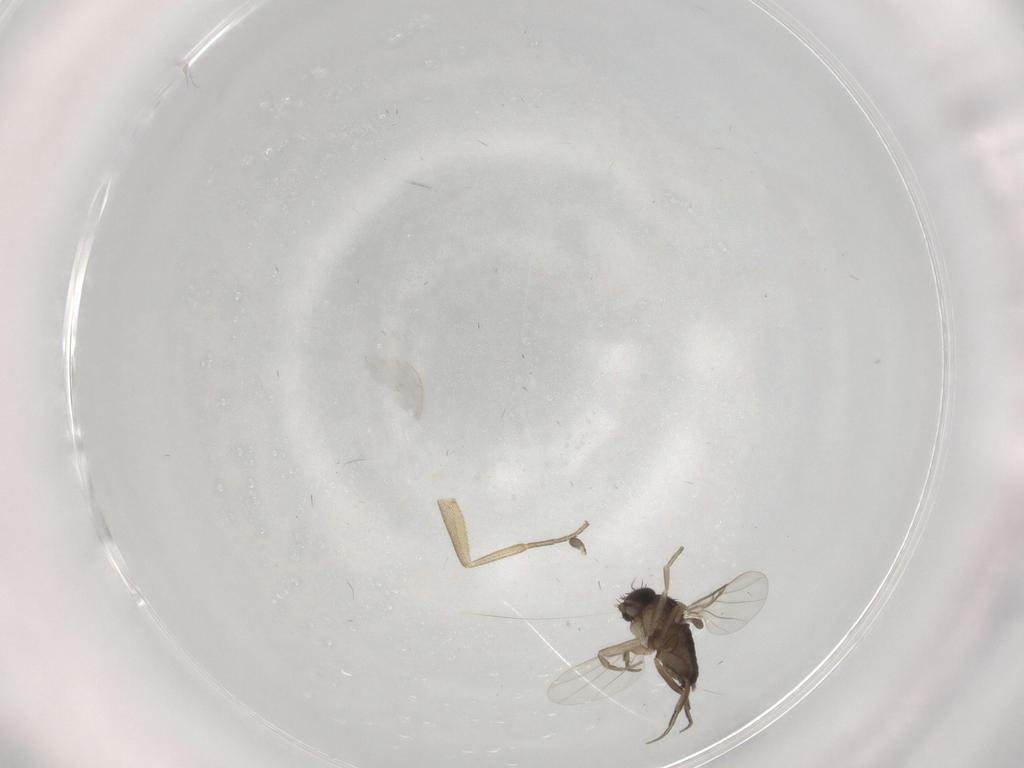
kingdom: Animalia
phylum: Arthropoda
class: Insecta
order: Diptera
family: Phoridae
